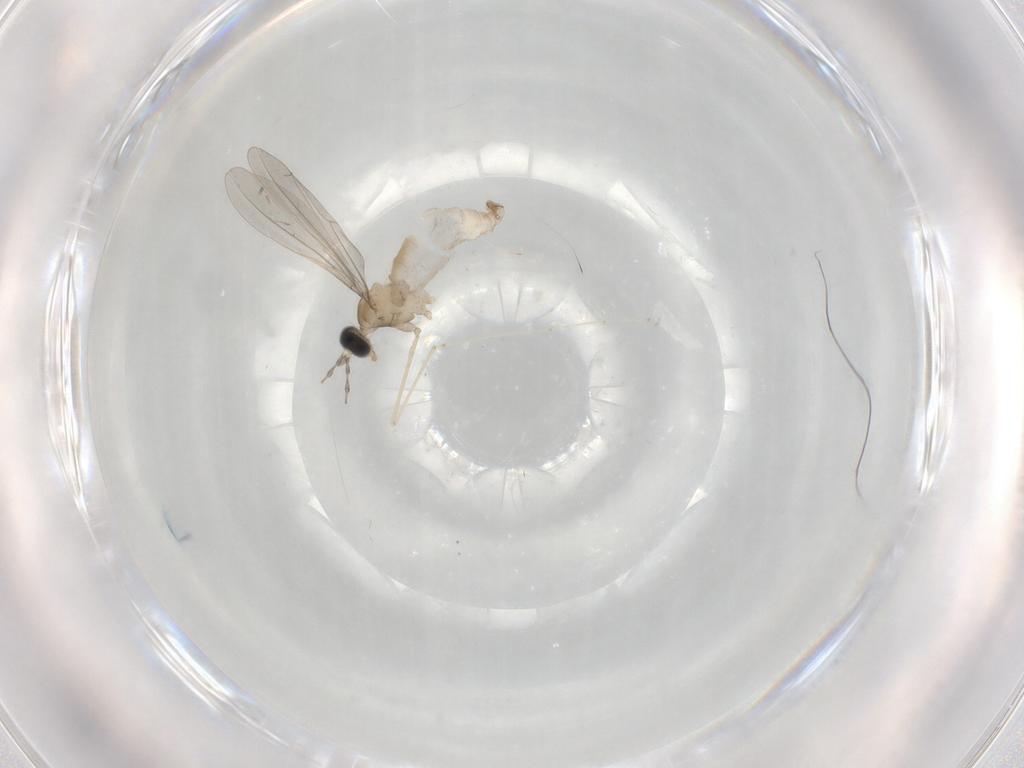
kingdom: Animalia
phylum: Arthropoda
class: Insecta
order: Diptera
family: Cecidomyiidae
